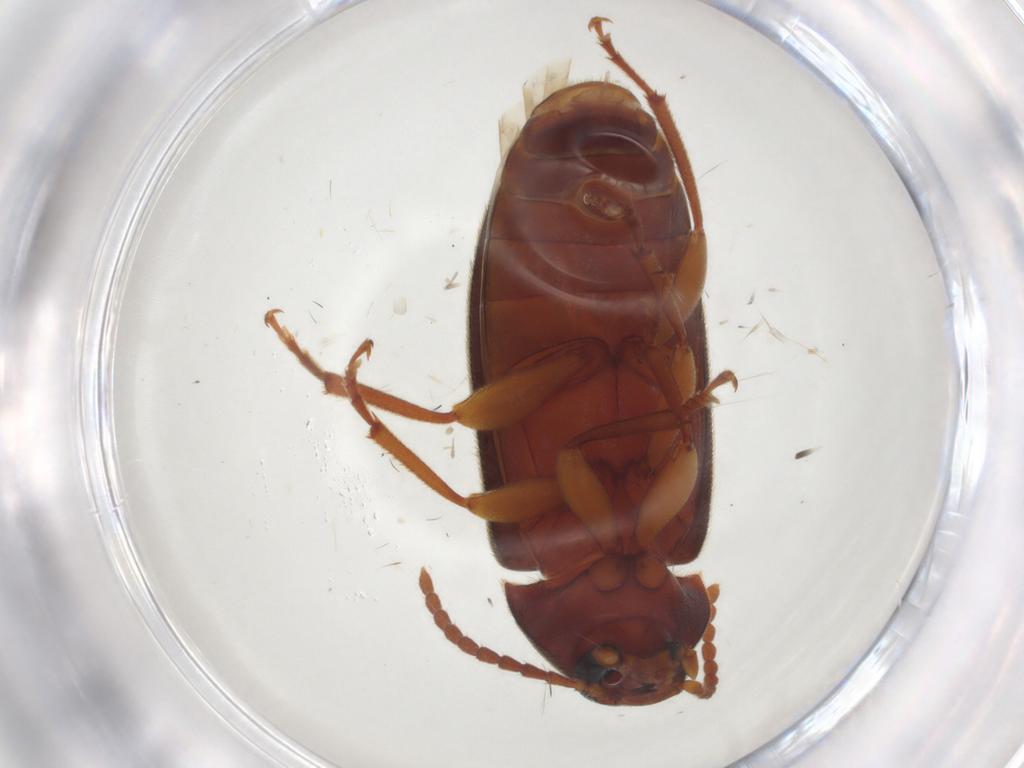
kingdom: Animalia
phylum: Arthropoda
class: Insecta
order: Coleoptera
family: Tenebrionidae
